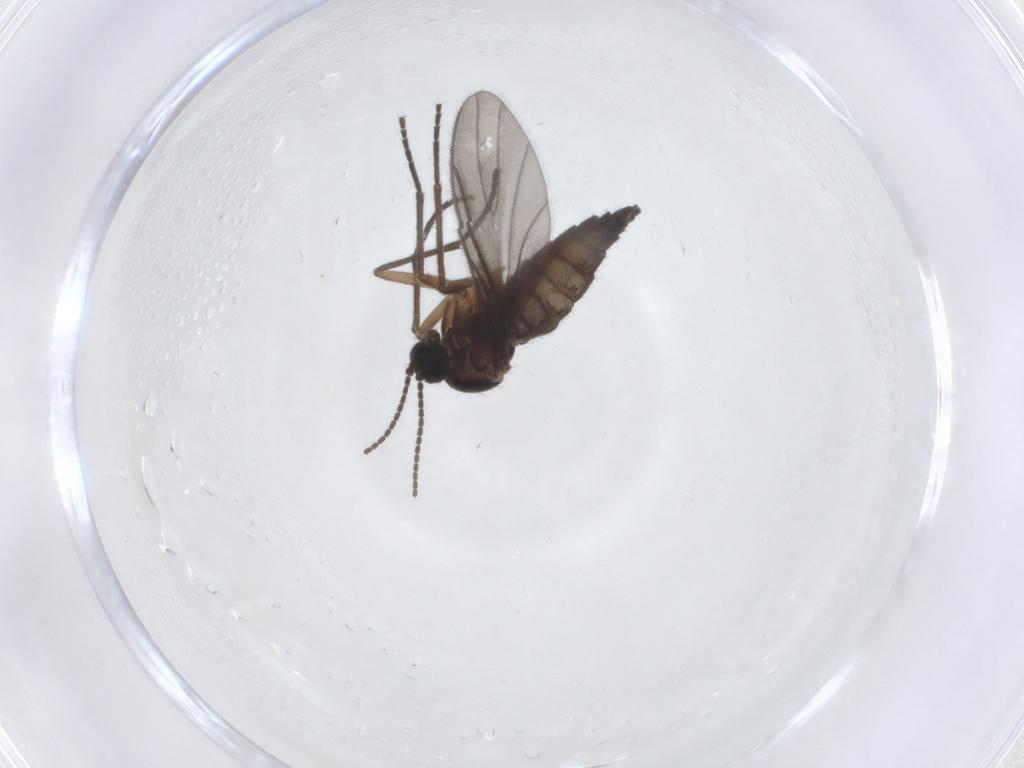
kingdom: Animalia
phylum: Arthropoda
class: Insecta
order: Diptera
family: Sciaridae
